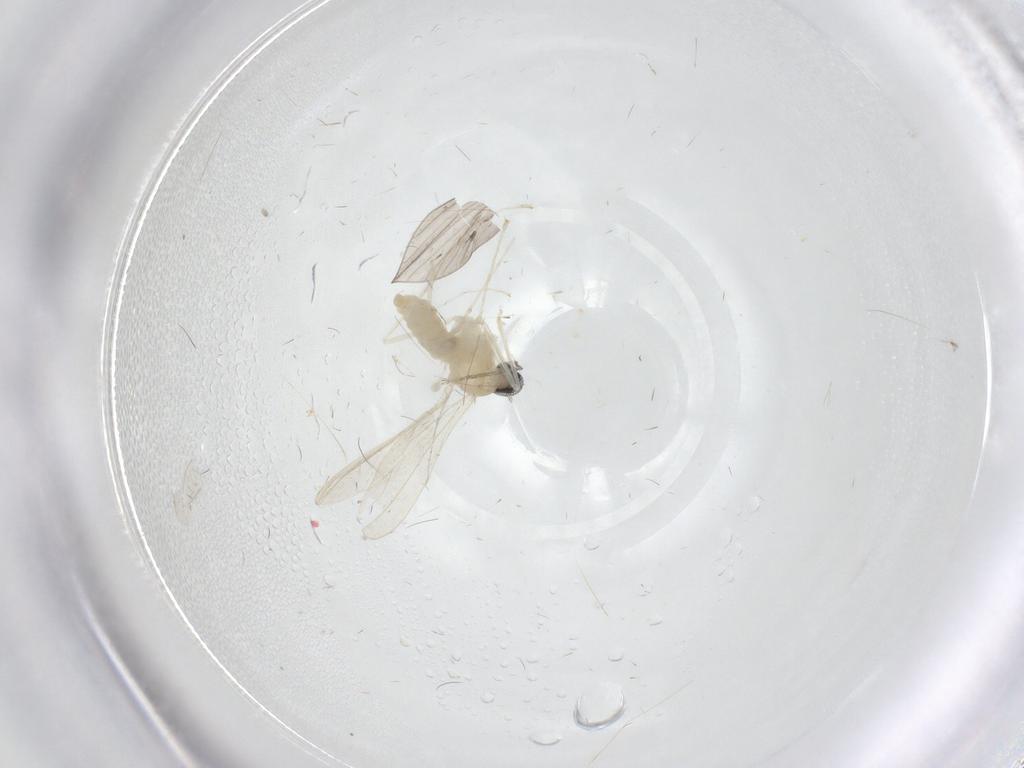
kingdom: Animalia
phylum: Arthropoda
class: Insecta
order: Diptera
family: Cecidomyiidae
